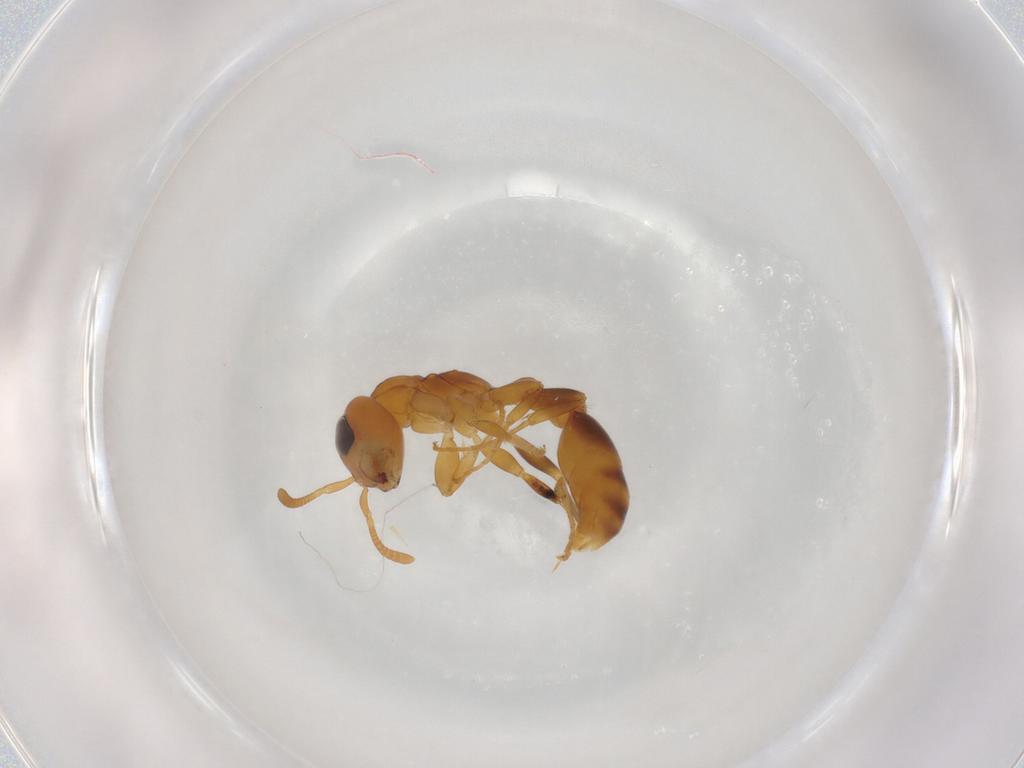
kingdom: Animalia
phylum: Arthropoda
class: Insecta
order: Hymenoptera
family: Formicidae
